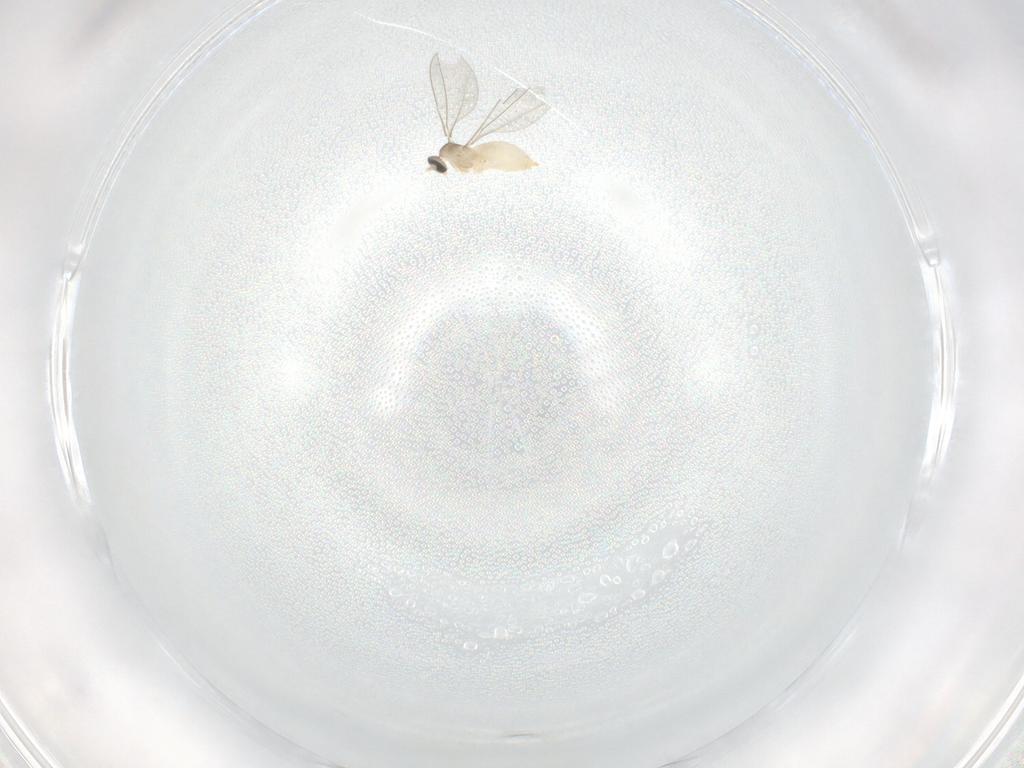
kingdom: Animalia
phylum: Arthropoda
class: Insecta
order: Diptera
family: Cecidomyiidae
